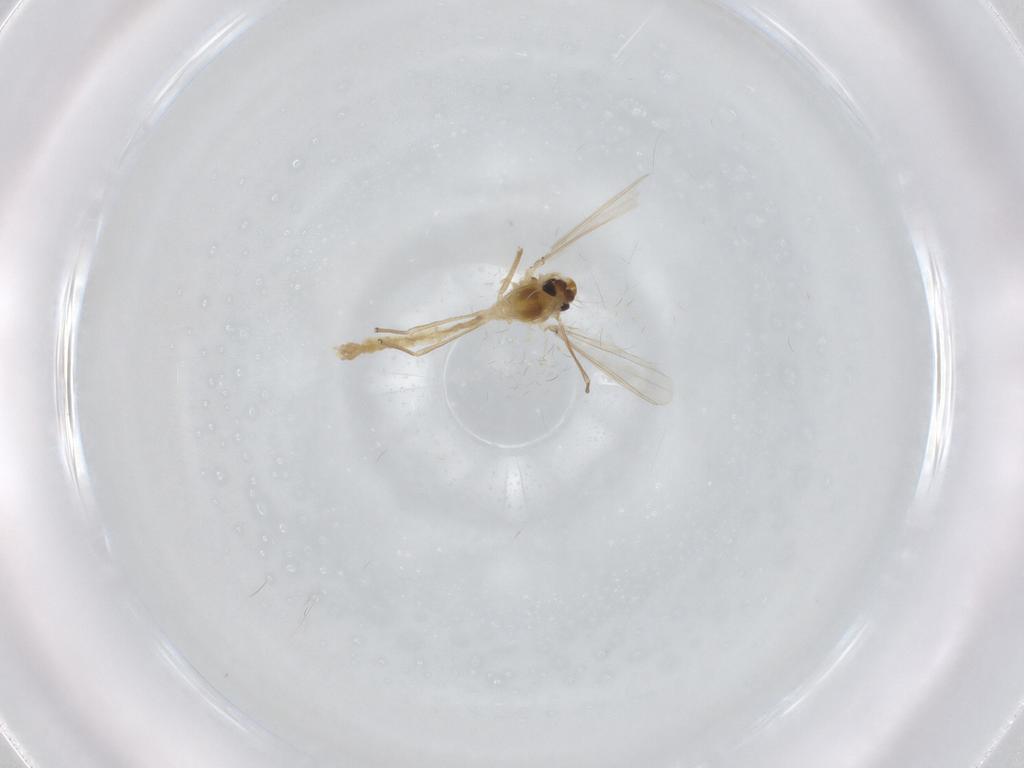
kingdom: Animalia
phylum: Arthropoda
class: Insecta
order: Diptera
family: Chironomidae
